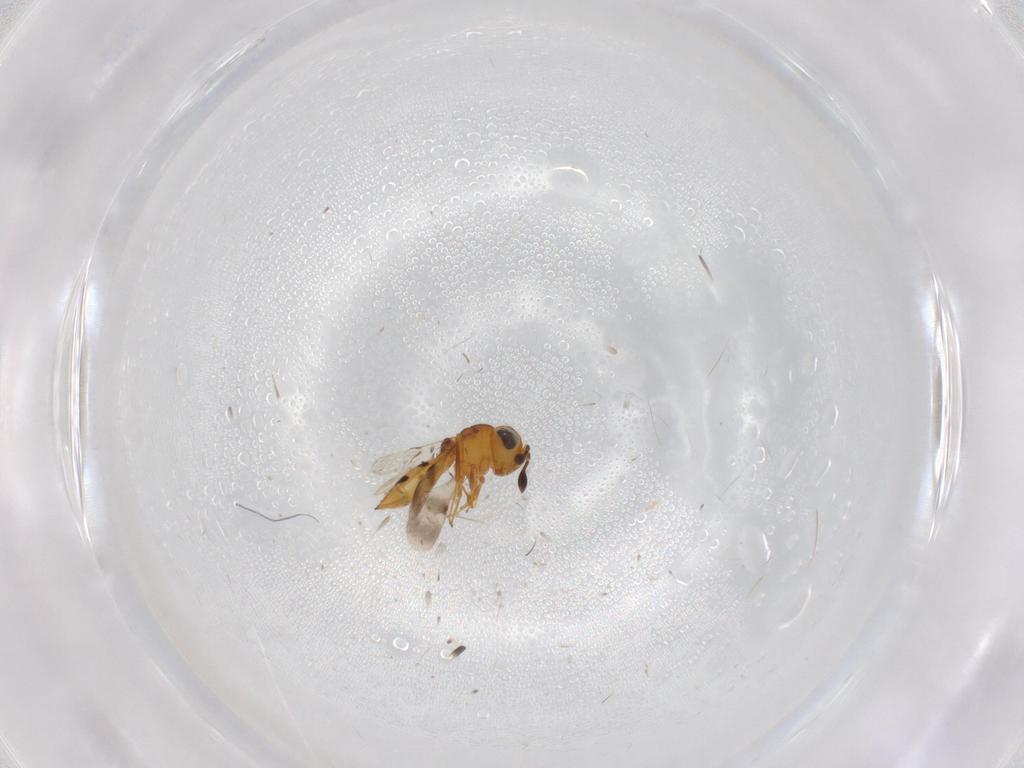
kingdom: Animalia
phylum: Arthropoda
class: Insecta
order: Hymenoptera
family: Scelionidae
